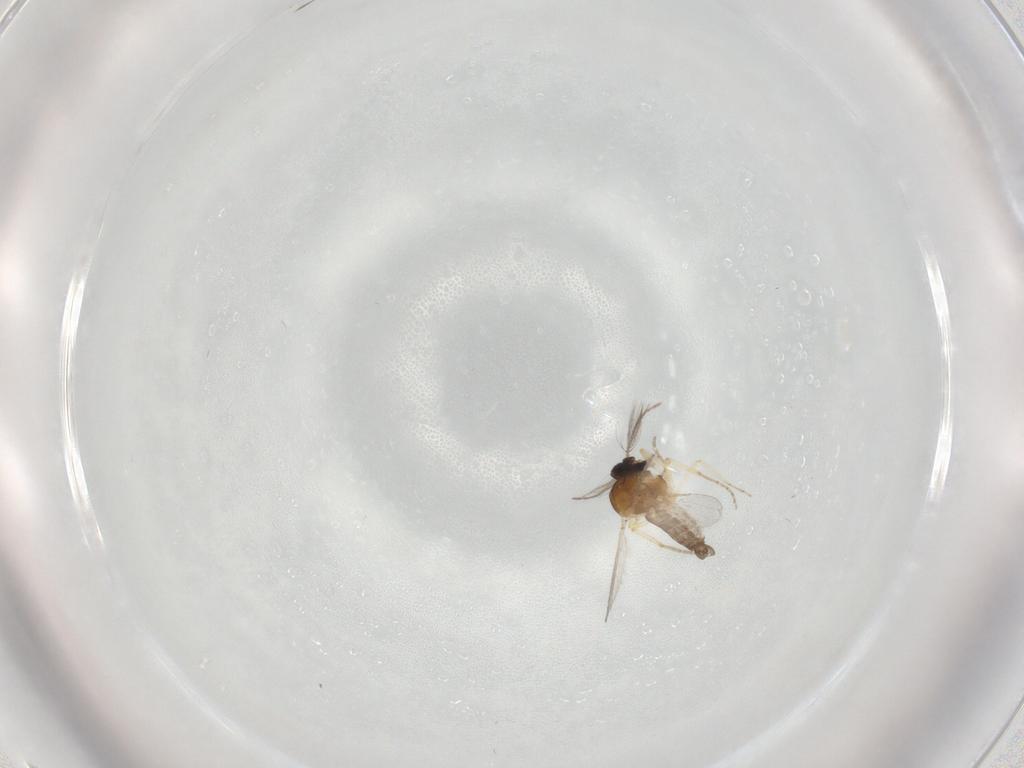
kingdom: Animalia
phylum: Arthropoda
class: Insecta
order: Diptera
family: Ceratopogonidae
